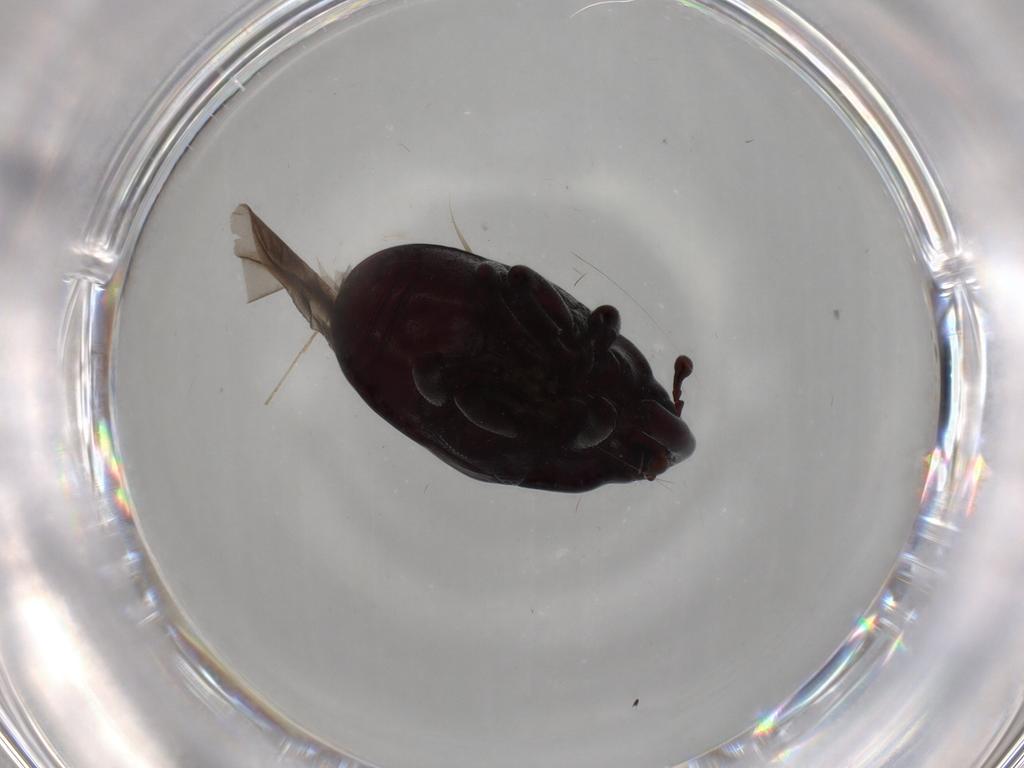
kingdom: Animalia
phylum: Arthropoda
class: Insecta
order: Coleoptera
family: Curculionidae
